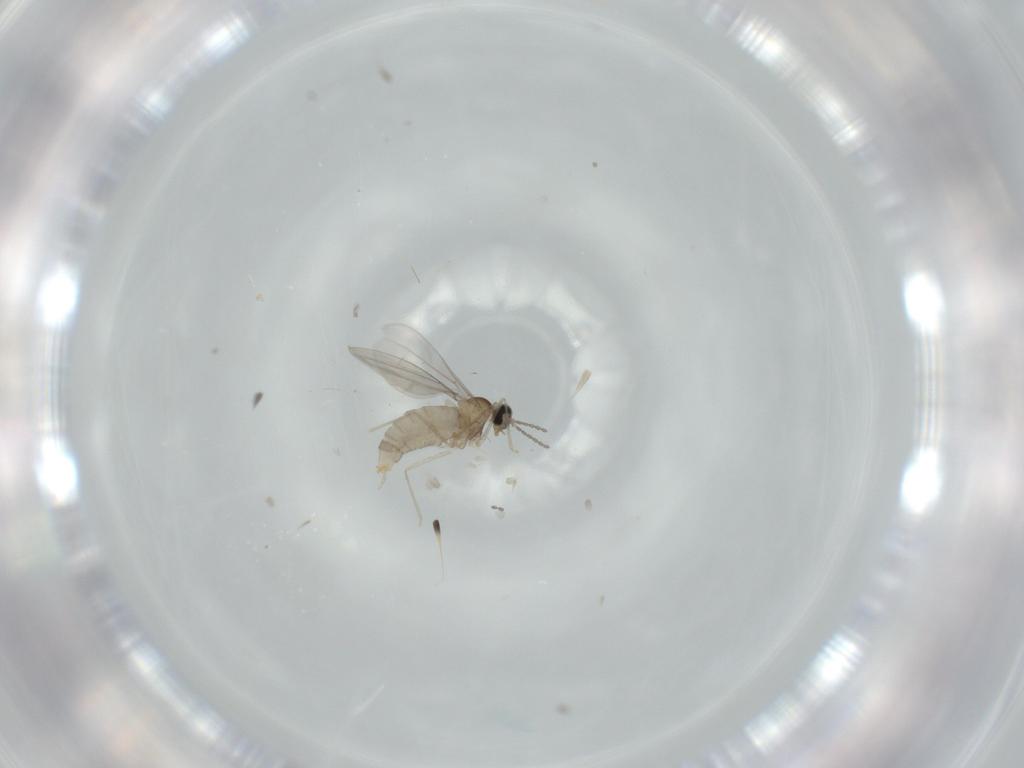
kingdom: Animalia
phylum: Arthropoda
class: Insecta
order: Diptera
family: Cecidomyiidae
